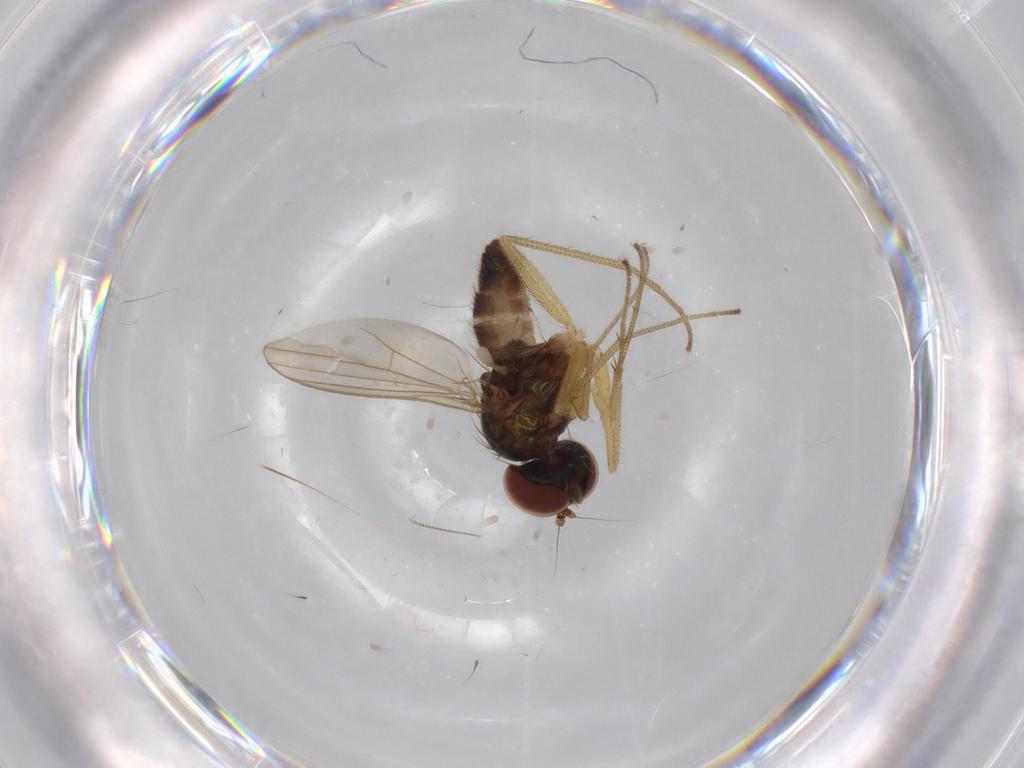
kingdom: Animalia
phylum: Arthropoda
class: Insecta
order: Diptera
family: Dolichopodidae
